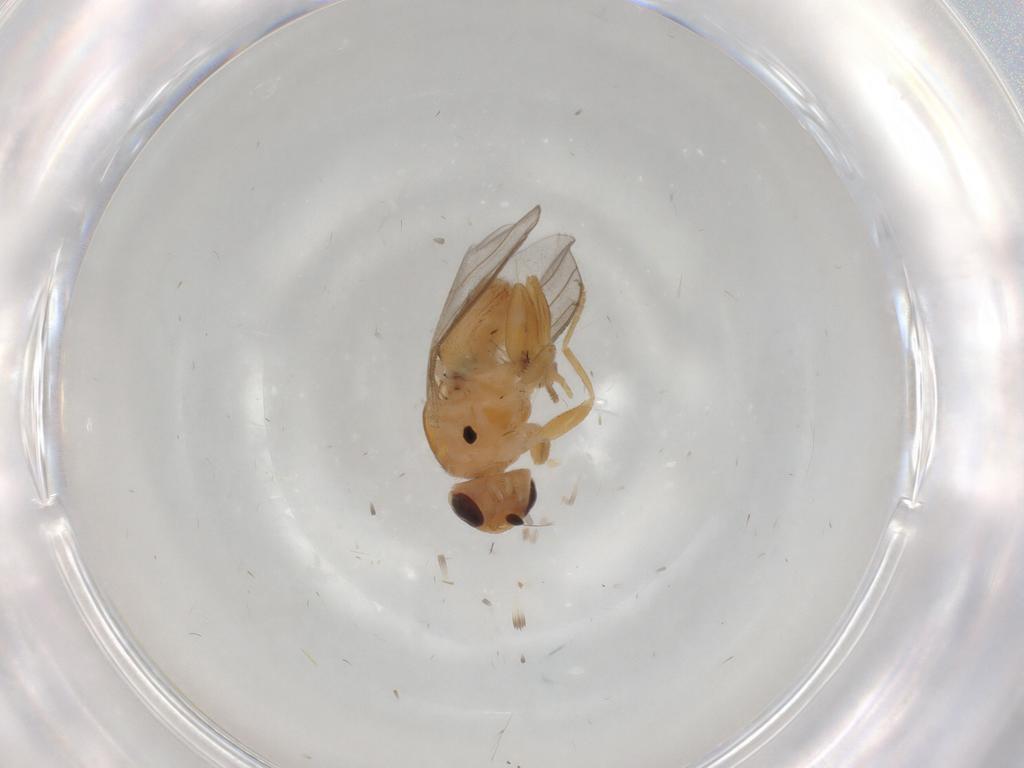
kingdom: Animalia
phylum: Arthropoda
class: Insecta
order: Diptera
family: Chloropidae
